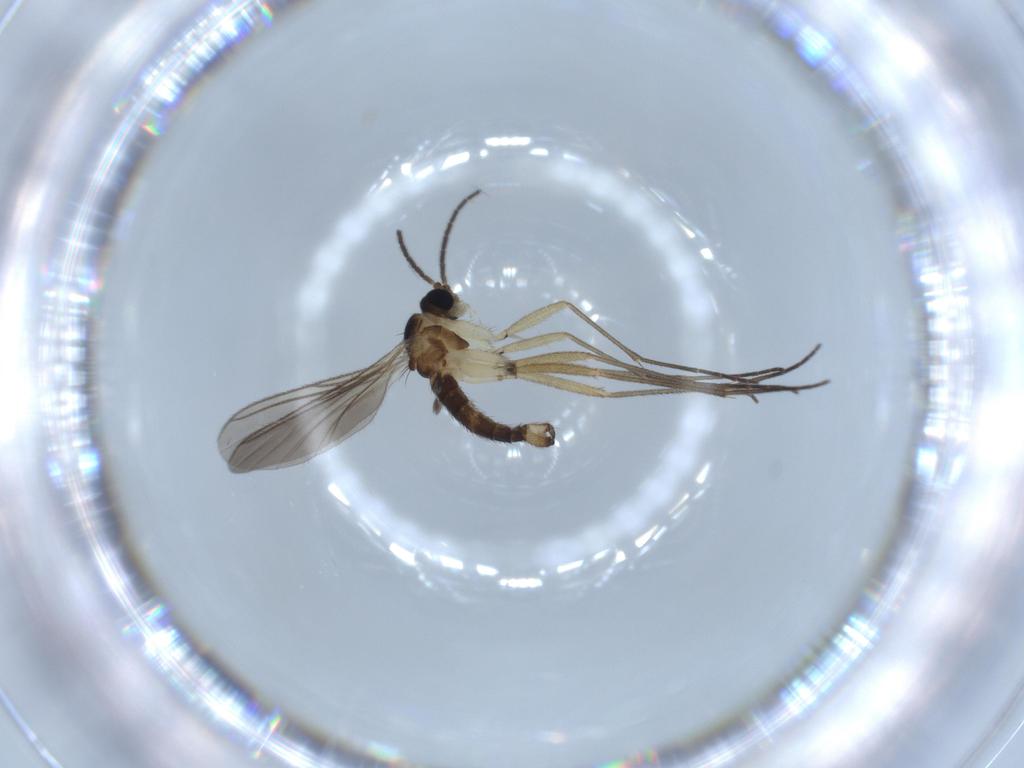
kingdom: Animalia
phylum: Arthropoda
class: Insecta
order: Diptera
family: Sciaridae
